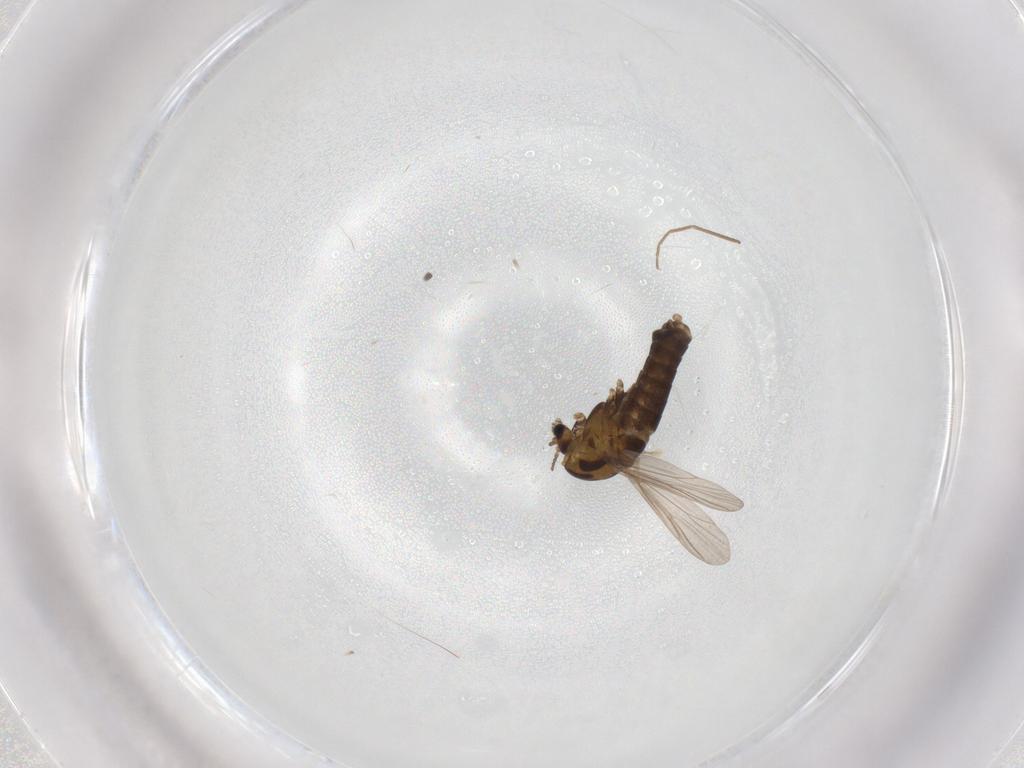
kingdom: Animalia
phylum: Arthropoda
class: Insecta
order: Diptera
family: Chironomidae
